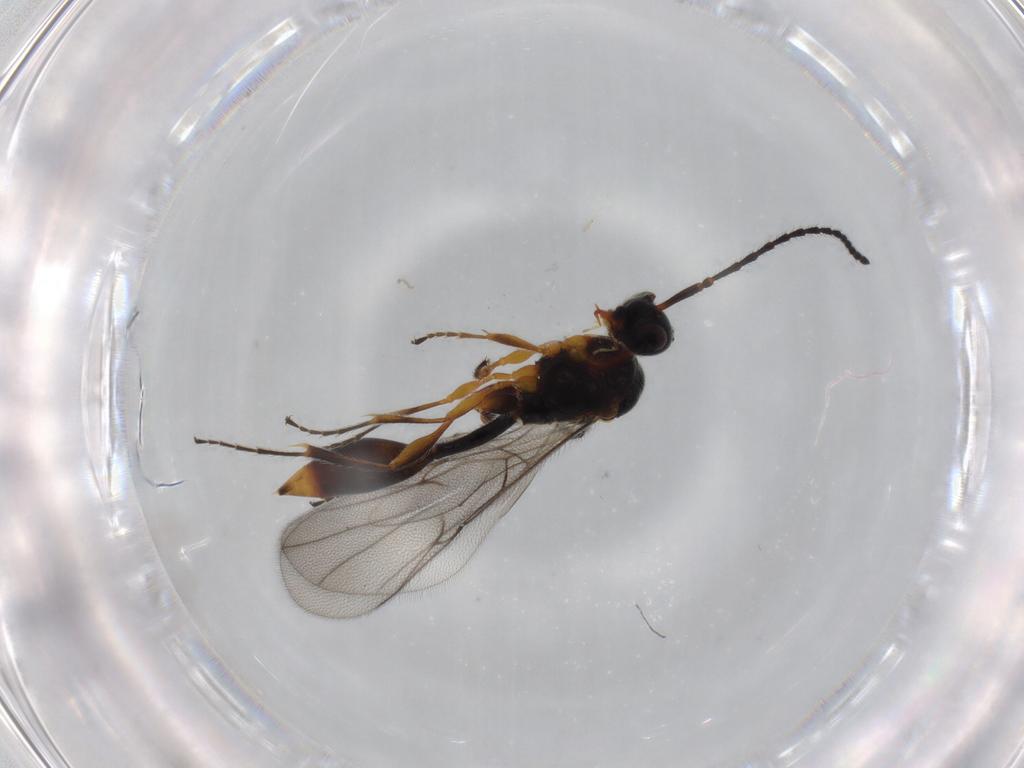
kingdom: Animalia
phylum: Arthropoda
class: Insecta
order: Hymenoptera
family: Diapriidae
